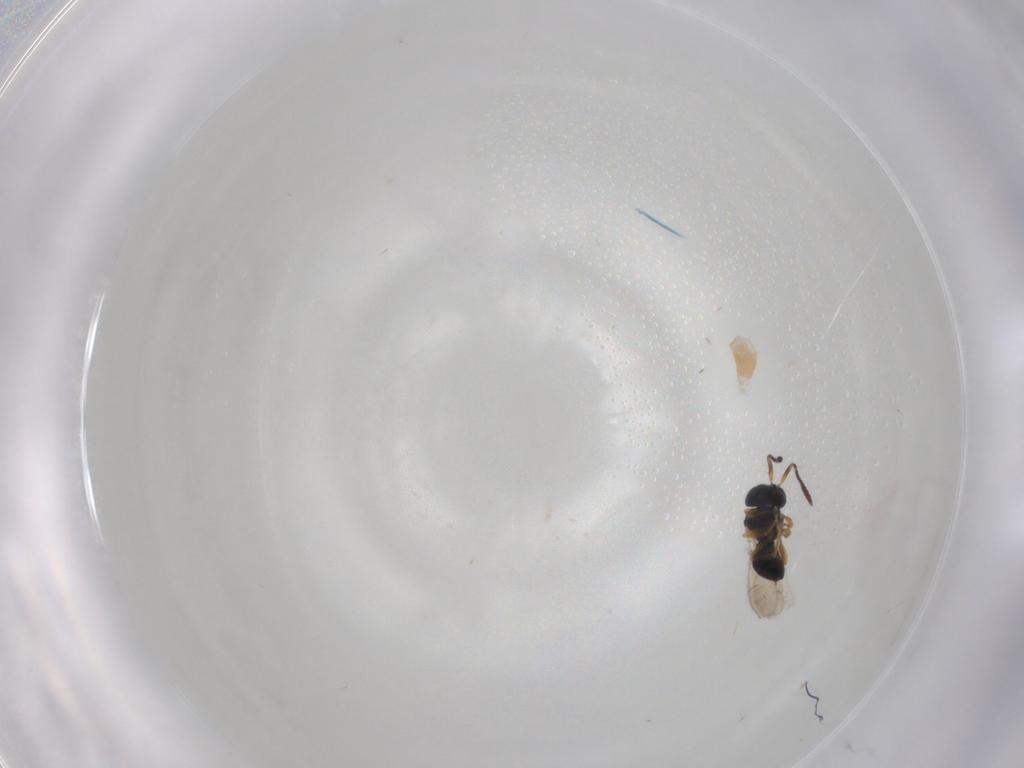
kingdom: Animalia
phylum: Arthropoda
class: Insecta
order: Hymenoptera
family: Scelionidae
